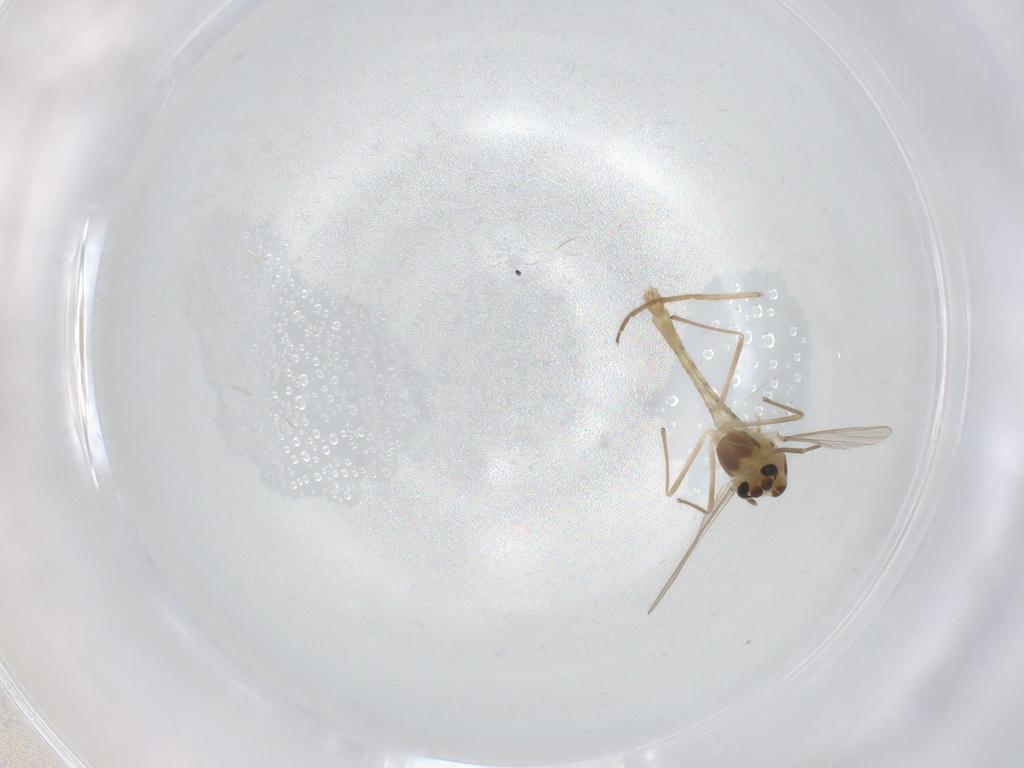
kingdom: Animalia
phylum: Arthropoda
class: Insecta
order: Diptera
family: Chironomidae
